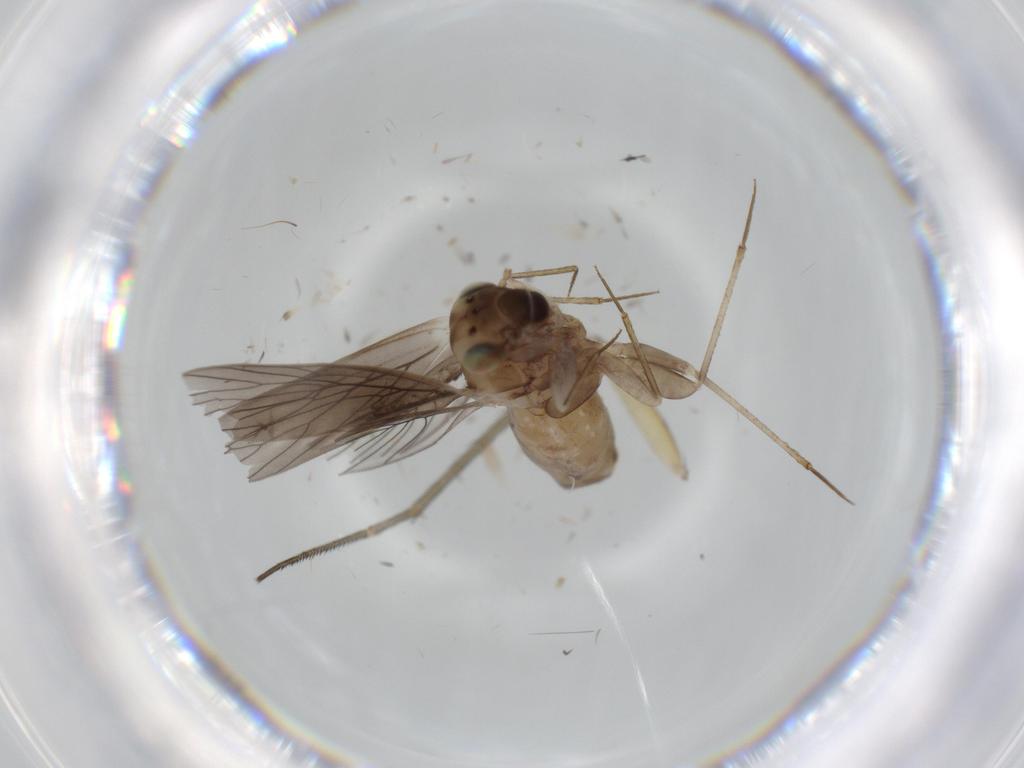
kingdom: Animalia
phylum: Arthropoda
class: Insecta
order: Psocodea
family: Lepidopsocidae
